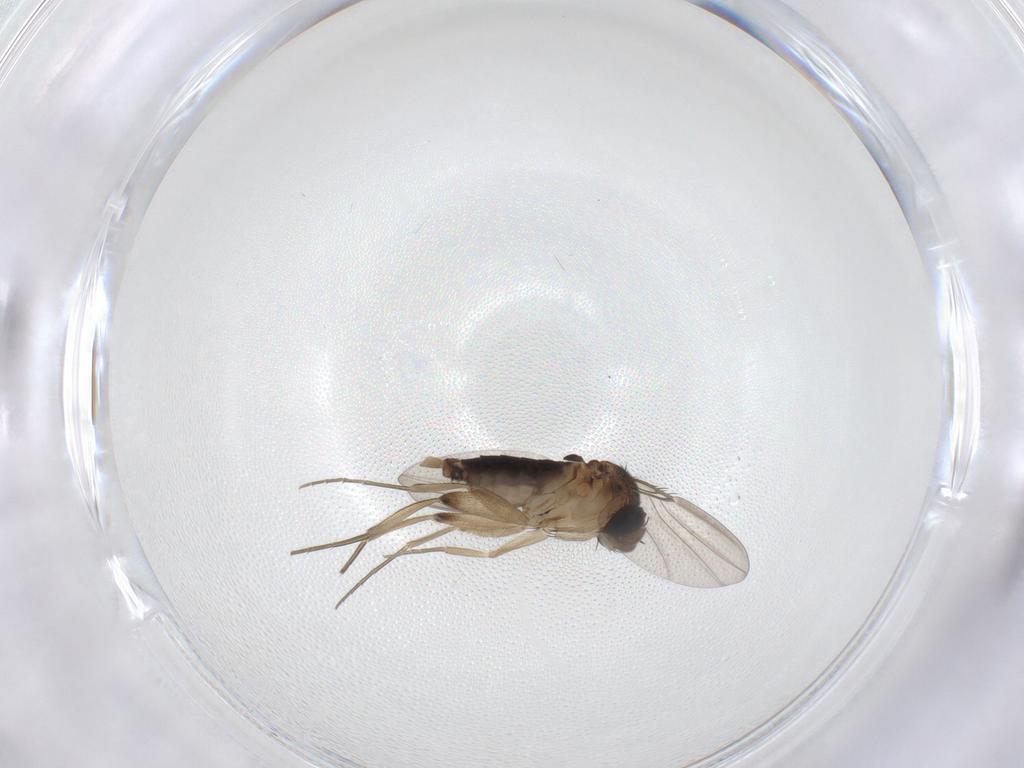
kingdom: Animalia
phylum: Arthropoda
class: Insecta
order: Diptera
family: Phoridae
